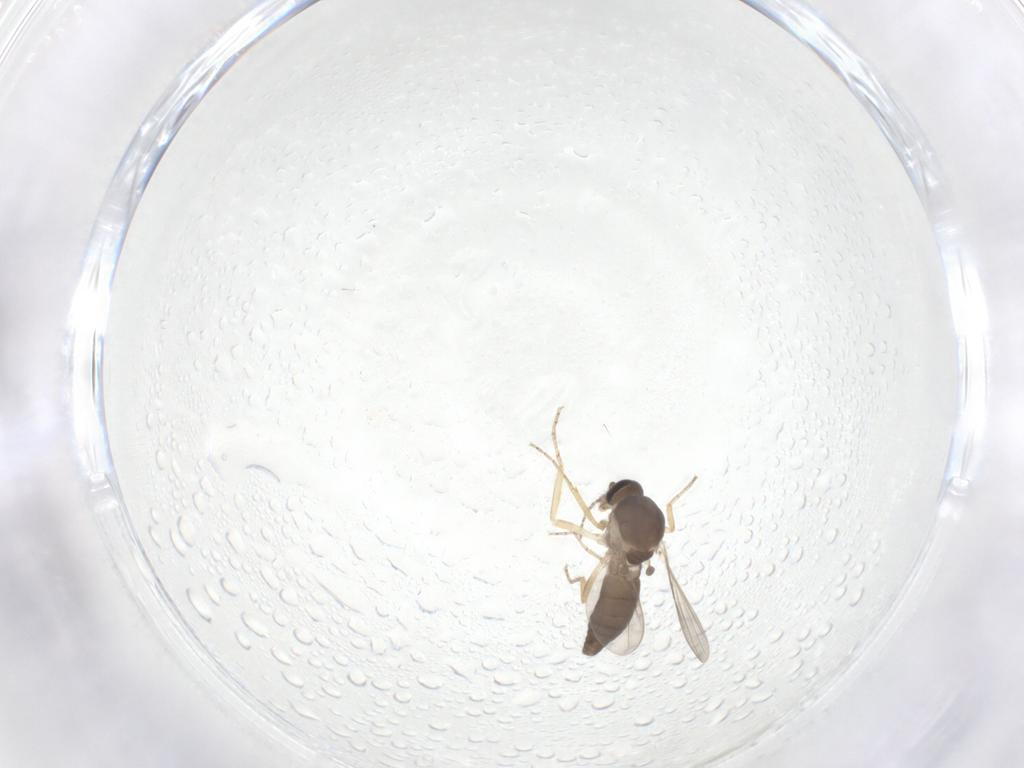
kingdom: Animalia
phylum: Arthropoda
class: Insecta
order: Diptera
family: Ceratopogonidae
